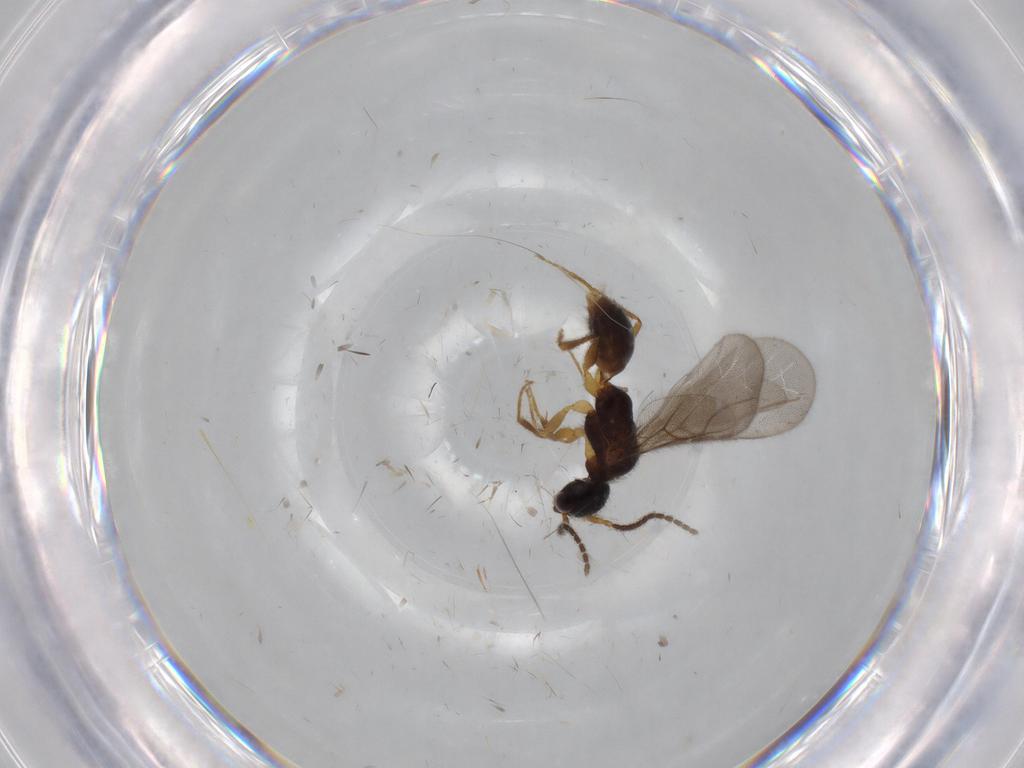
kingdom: Animalia
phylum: Arthropoda
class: Insecta
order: Hymenoptera
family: Bethylidae
